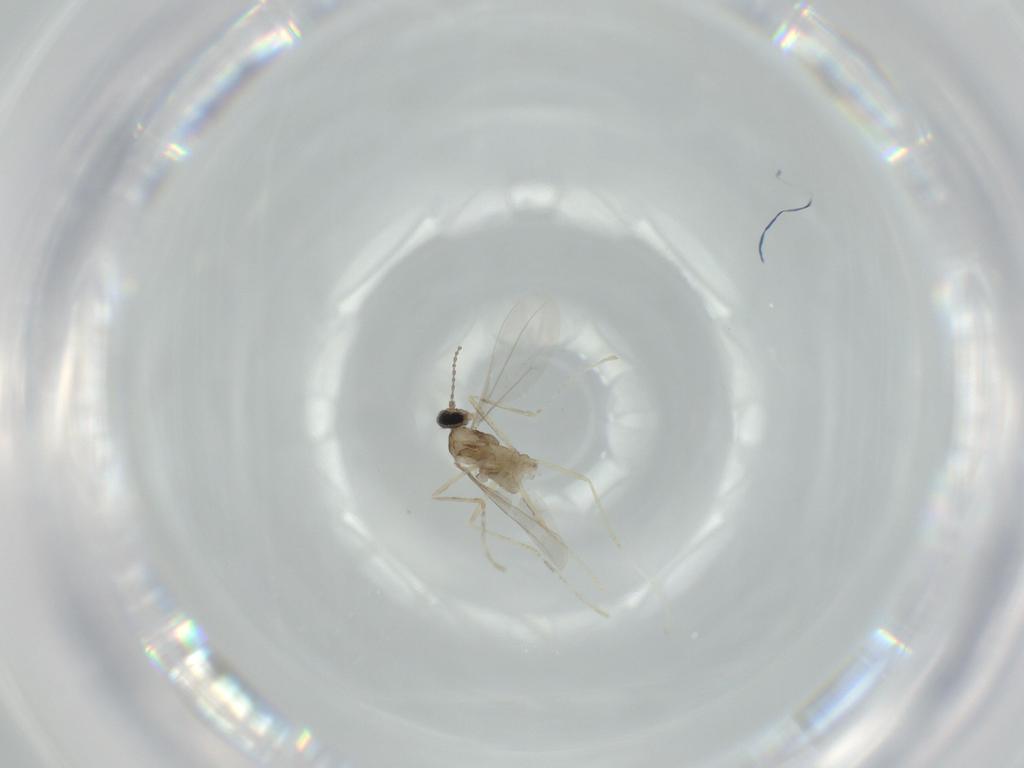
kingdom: Animalia
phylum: Arthropoda
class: Insecta
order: Diptera
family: Cecidomyiidae
